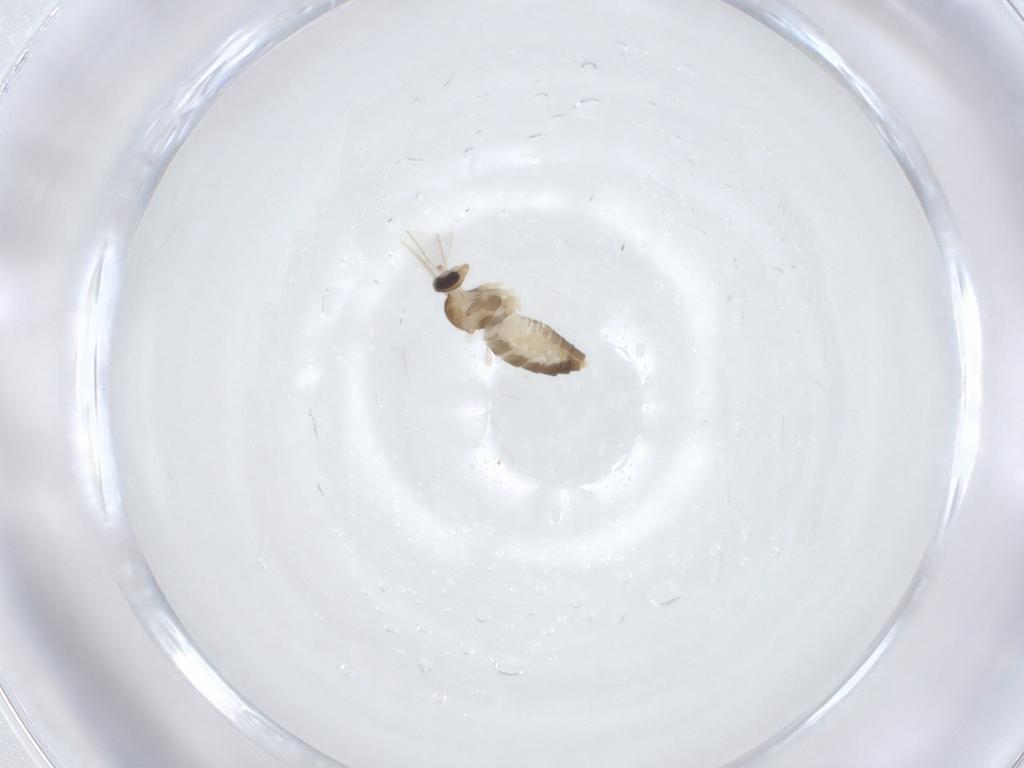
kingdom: Animalia
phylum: Arthropoda
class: Insecta
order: Diptera
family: Cecidomyiidae
